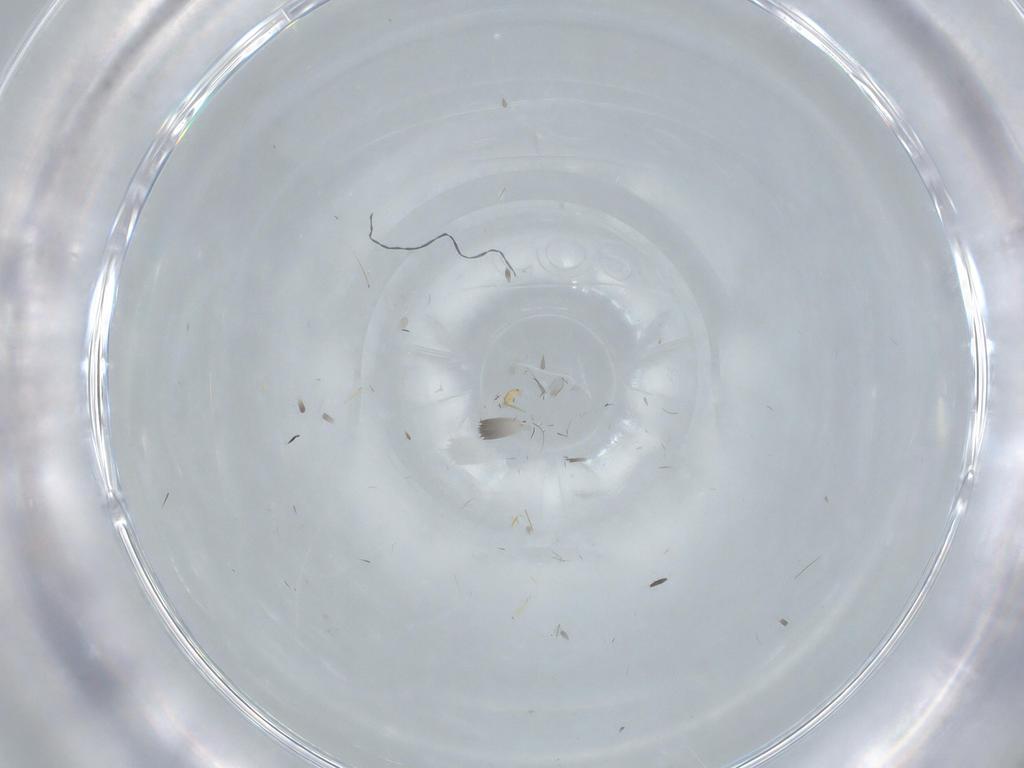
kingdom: Animalia
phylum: Arthropoda
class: Insecta
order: Diptera
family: Sciaridae
